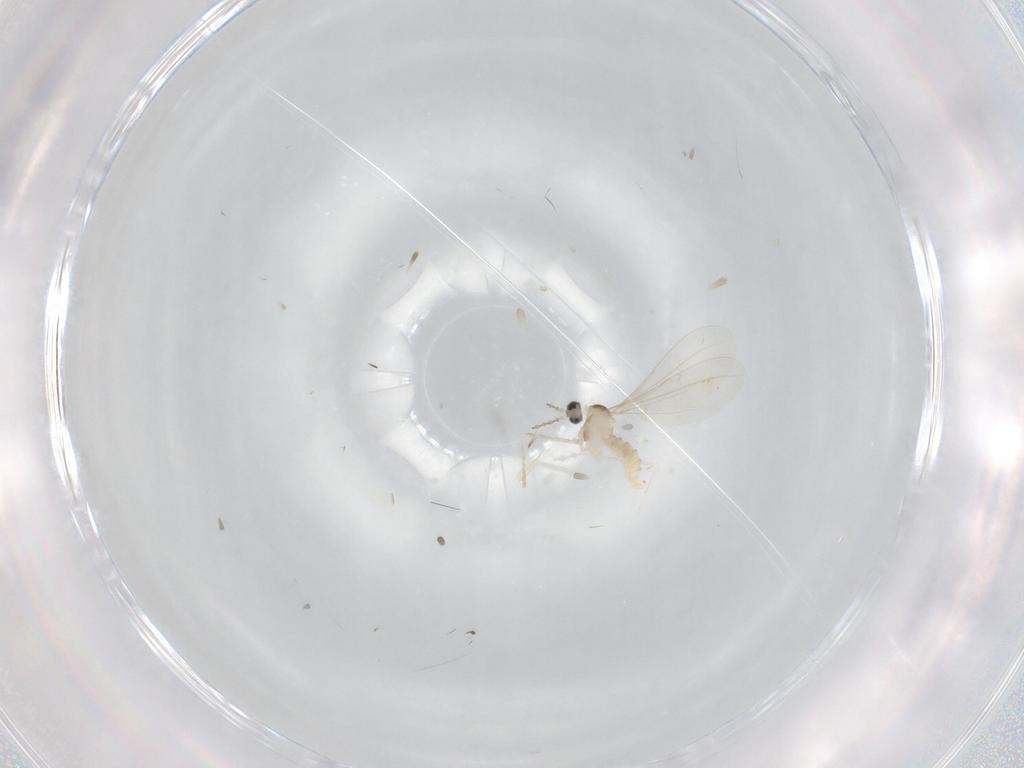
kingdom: Animalia
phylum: Arthropoda
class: Insecta
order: Diptera
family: Cecidomyiidae
